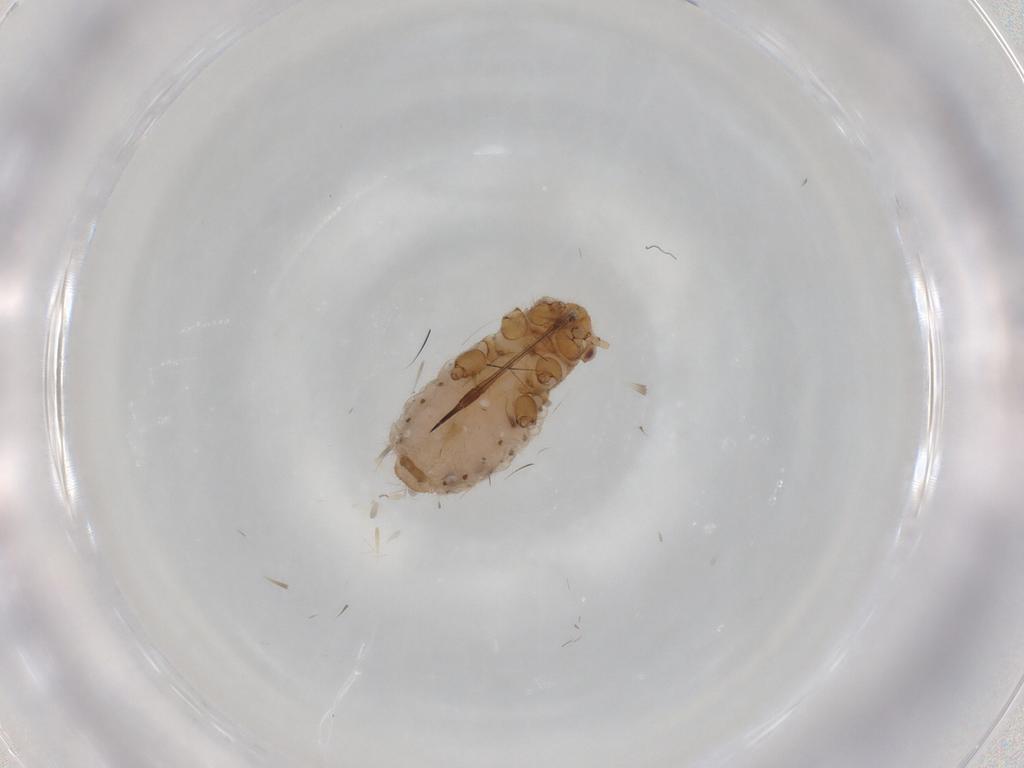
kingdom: Animalia
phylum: Arthropoda
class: Insecta
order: Hemiptera
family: Aphididae
